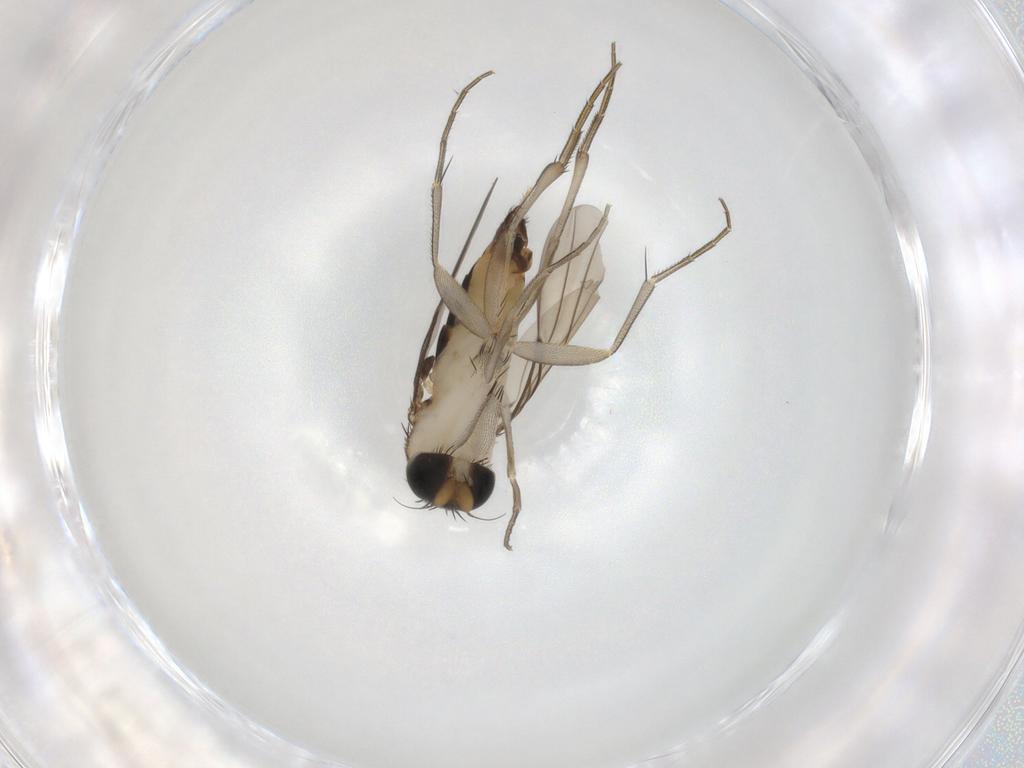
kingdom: Animalia
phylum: Arthropoda
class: Insecta
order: Diptera
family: Phoridae
